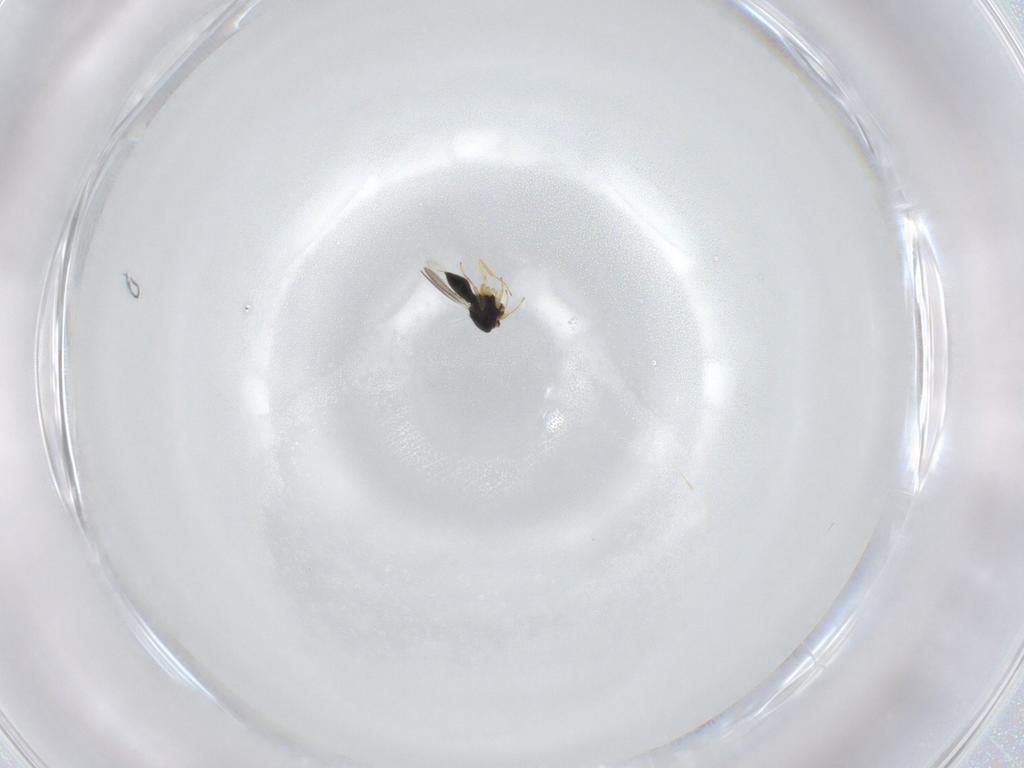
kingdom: Animalia
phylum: Arthropoda
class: Insecta
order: Hymenoptera
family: Scelionidae
